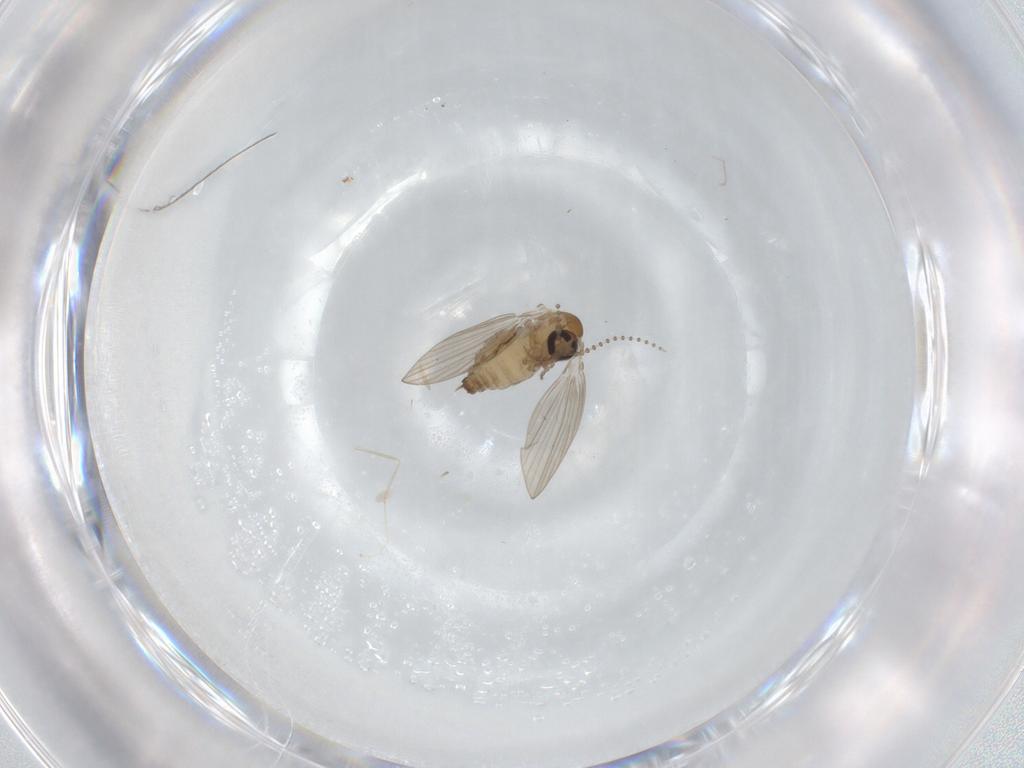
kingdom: Animalia
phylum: Arthropoda
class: Insecta
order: Diptera
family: Psychodidae
